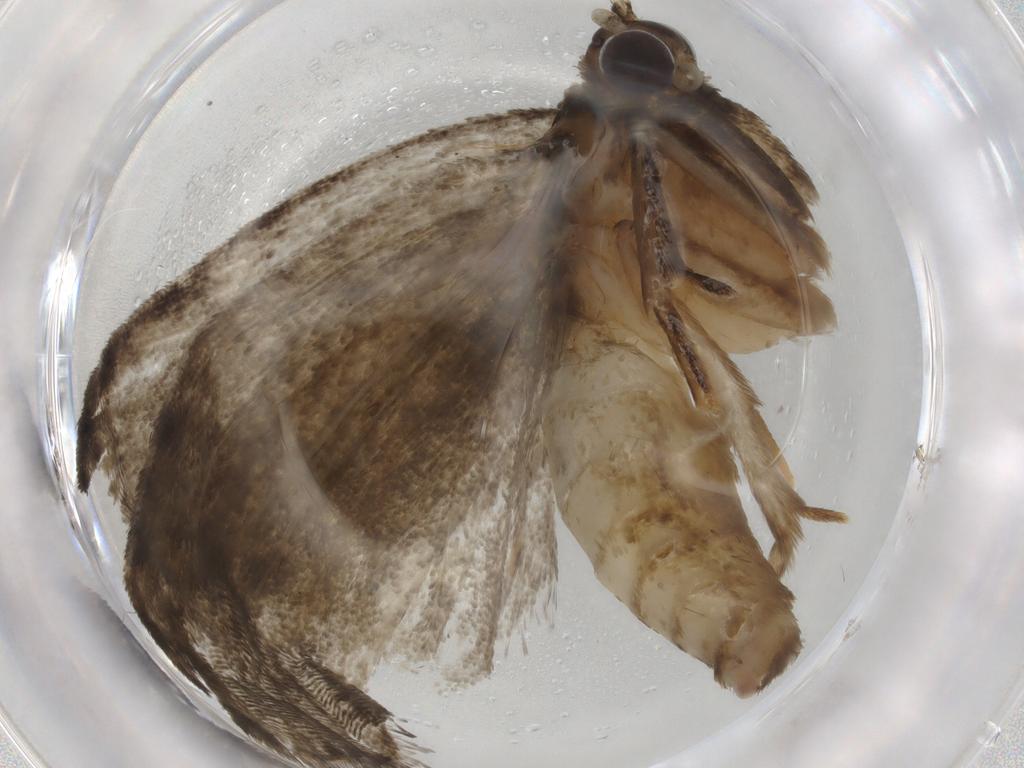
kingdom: Animalia
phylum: Arthropoda
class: Insecta
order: Lepidoptera
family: Tortricidae
